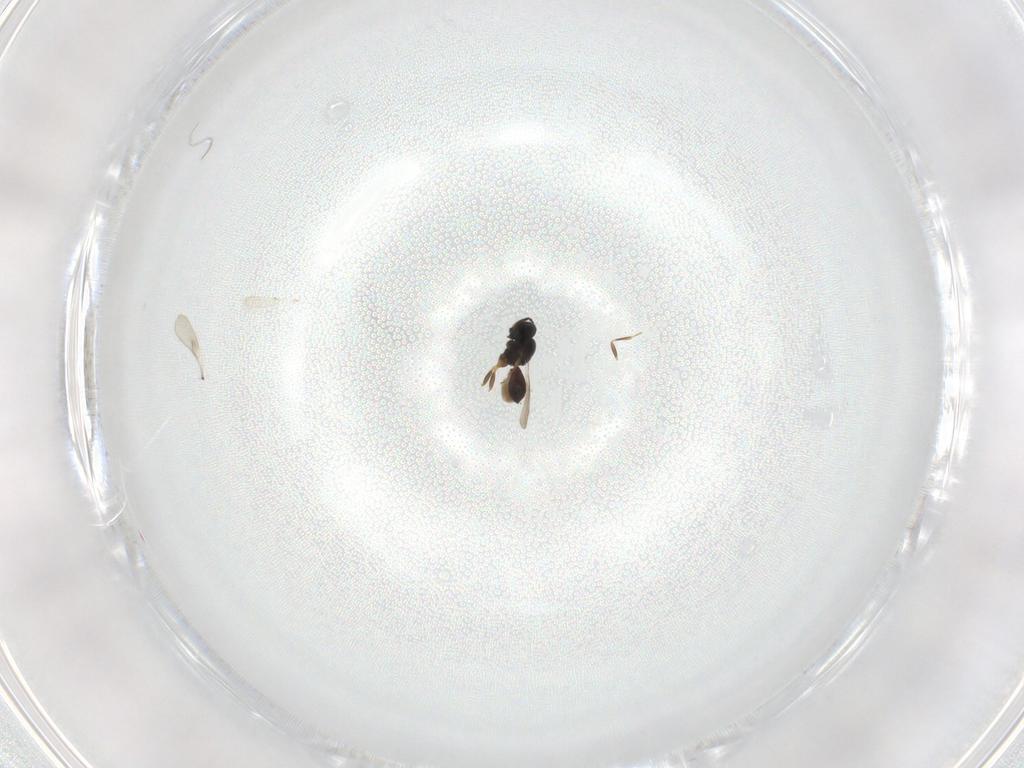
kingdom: Animalia
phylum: Arthropoda
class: Insecta
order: Hymenoptera
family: Scelionidae
